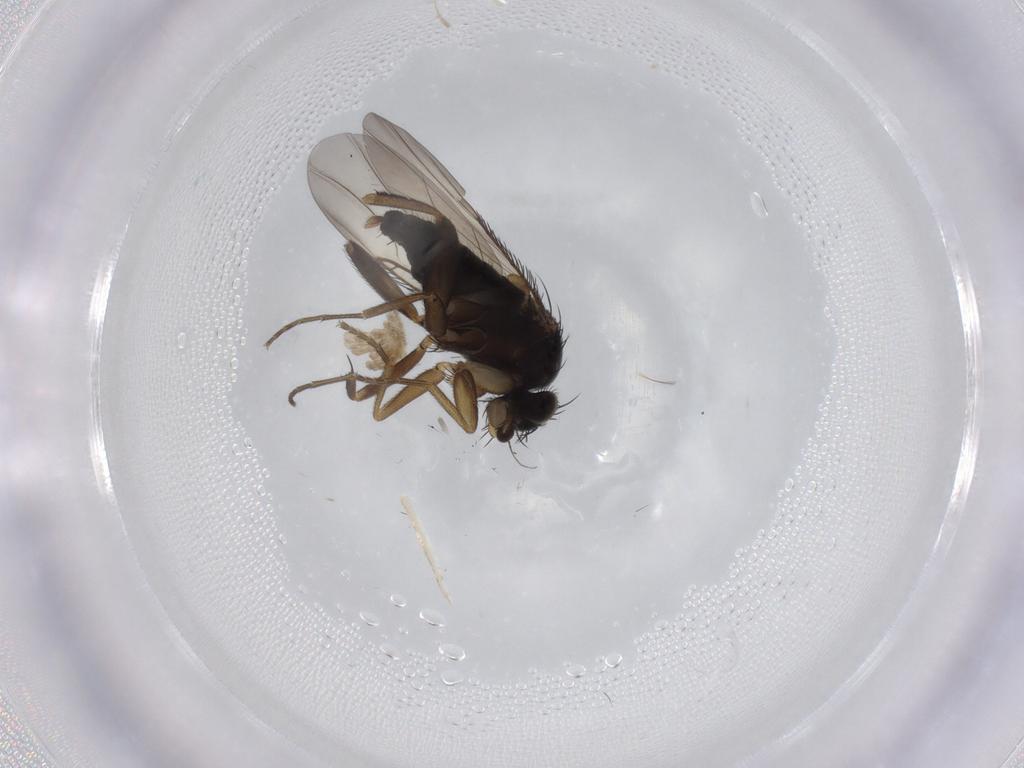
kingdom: Animalia
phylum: Arthropoda
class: Insecta
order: Diptera
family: Phoridae
